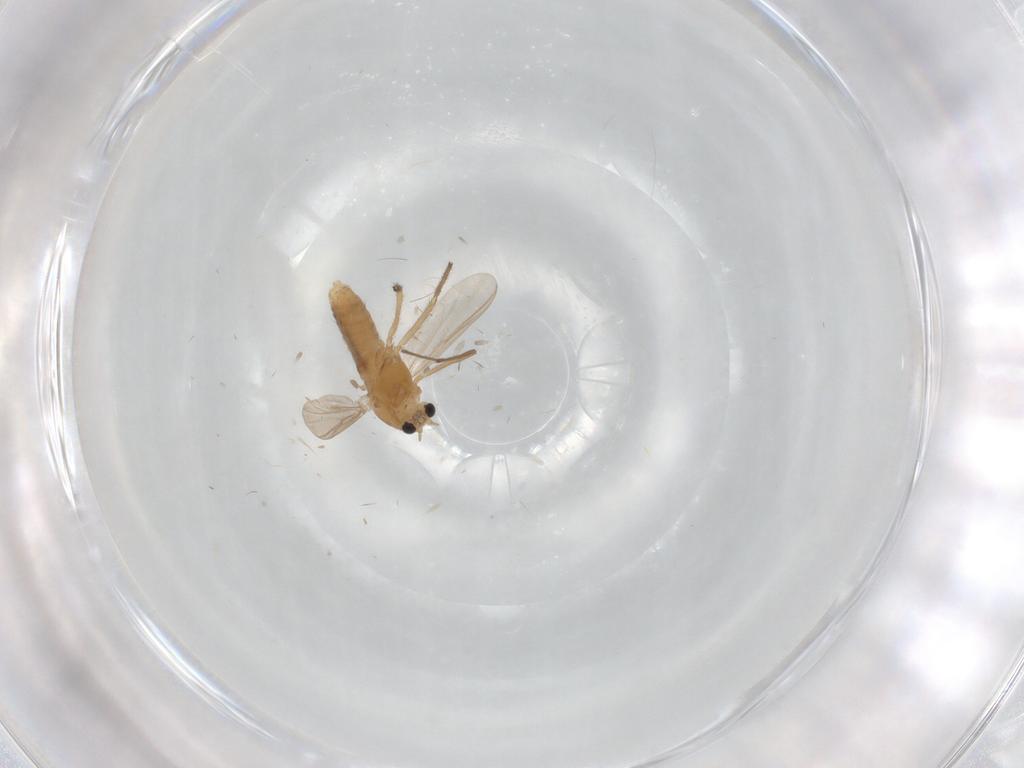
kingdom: Animalia
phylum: Arthropoda
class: Insecta
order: Diptera
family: Chironomidae
